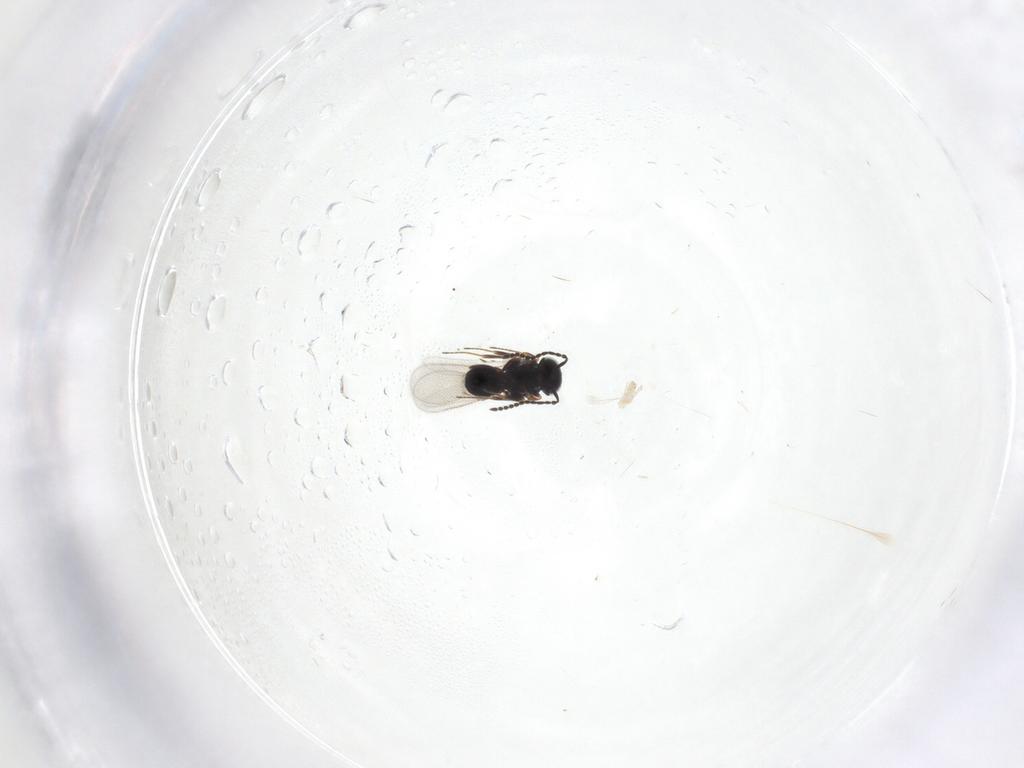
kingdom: Animalia
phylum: Arthropoda
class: Insecta
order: Hymenoptera
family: Scelionidae
